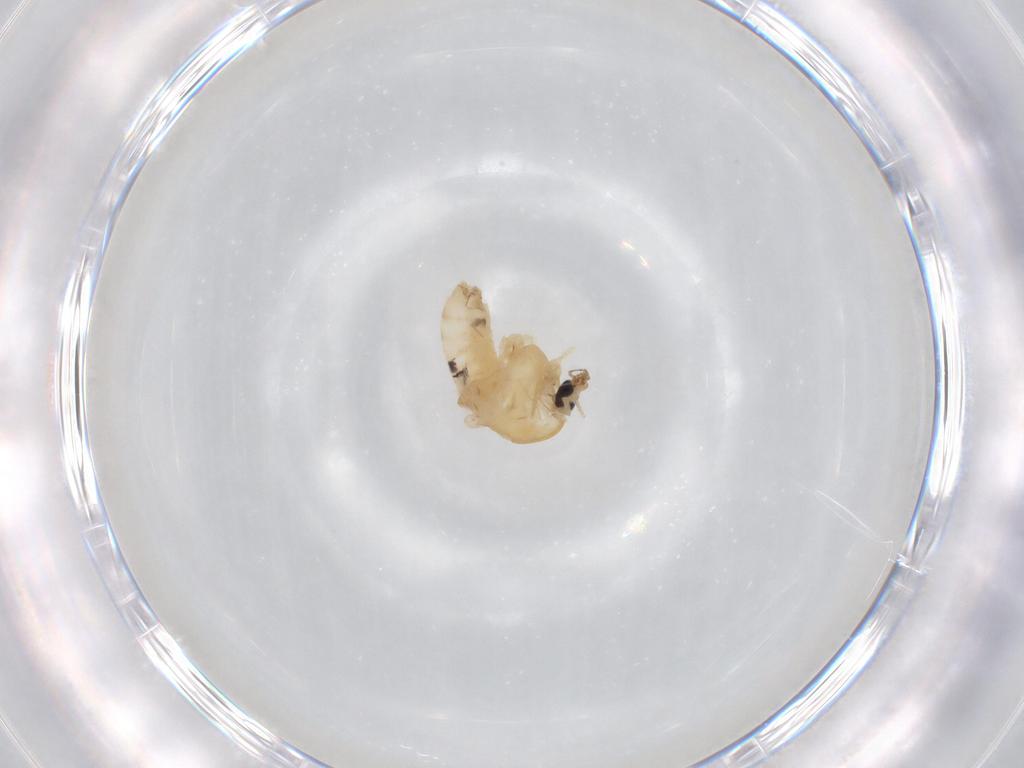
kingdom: Animalia
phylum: Arthropoda
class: Insecta
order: Diptera
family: Chironomidae
